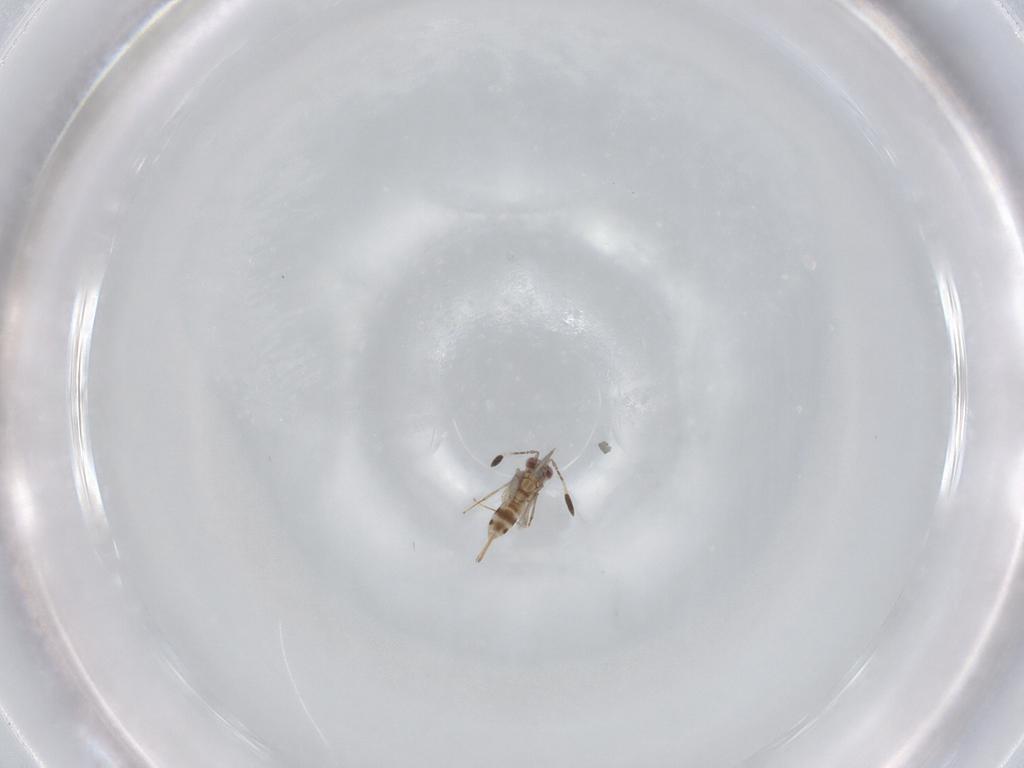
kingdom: Animalia
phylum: Arthropoda
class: Insecta
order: Hymenoptera
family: Mymaridae
